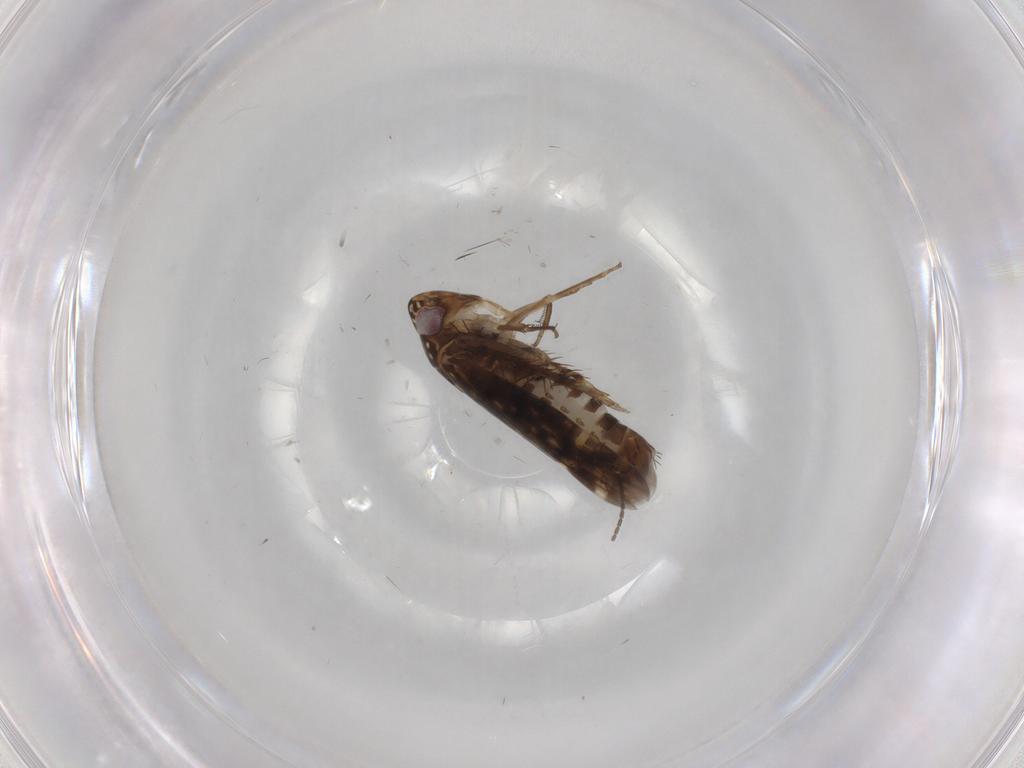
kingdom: Animalia
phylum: Arthropoda
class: Insecta
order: Hemiptera
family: Cicadellidae
